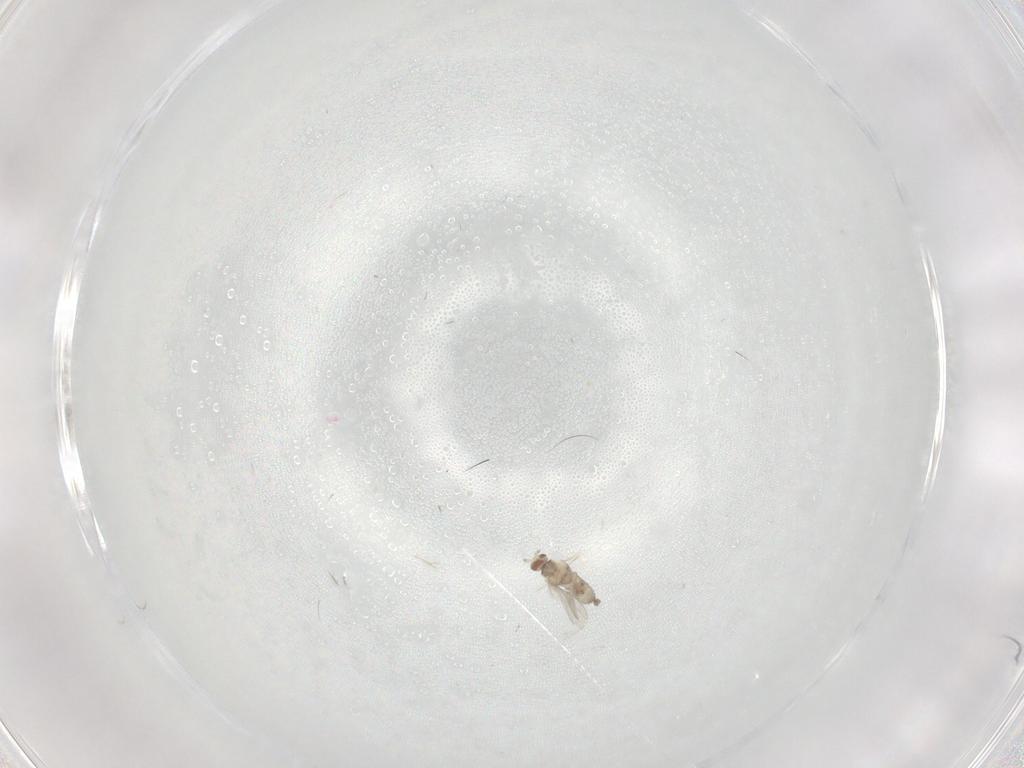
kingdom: Animalia
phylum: Arthropoda
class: Insecta
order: Diptera
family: Cecidomyiidae
